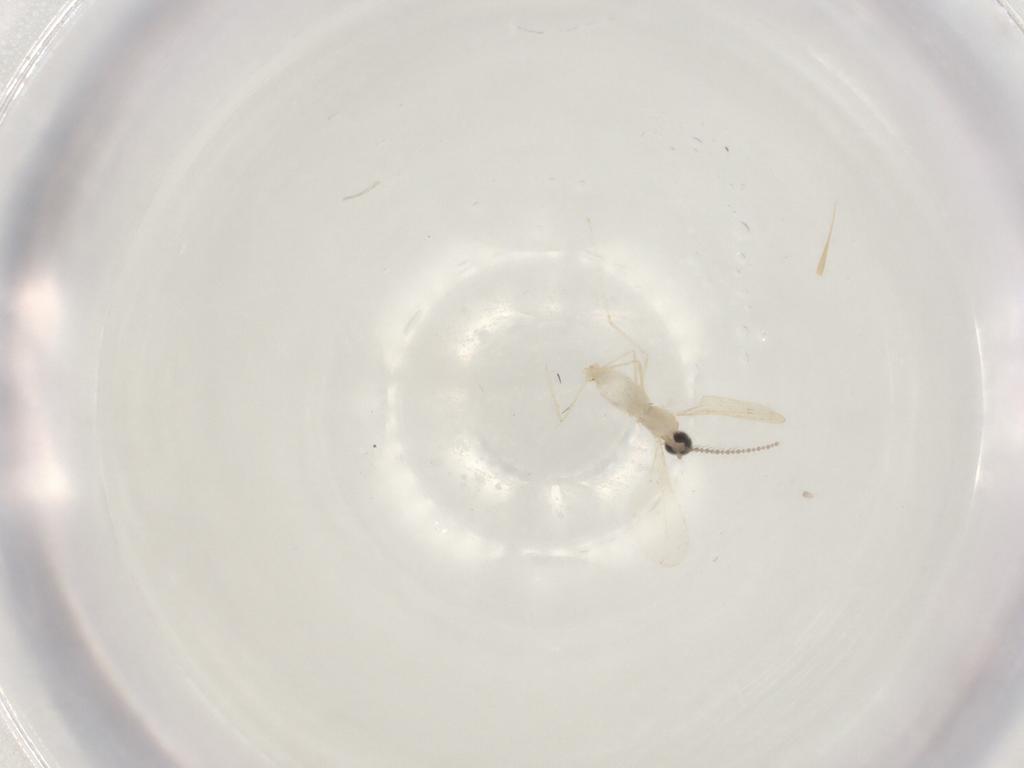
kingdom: Animalia
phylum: Arthropoda
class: Insecta
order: Diptera
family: Cecidomyiidae
